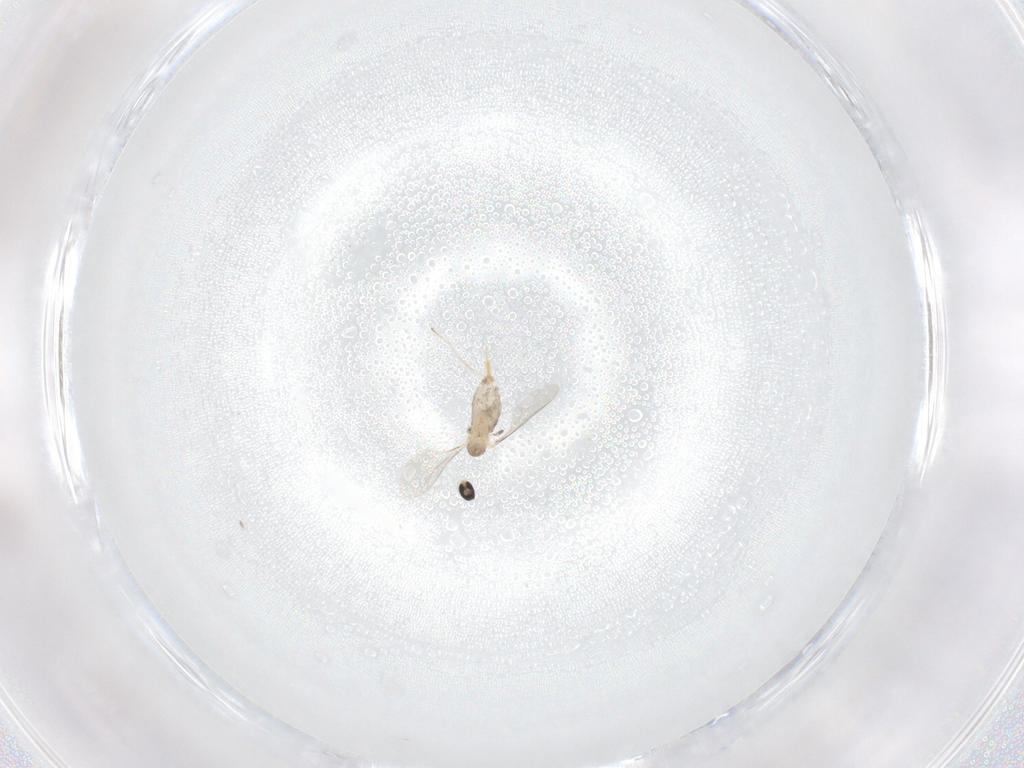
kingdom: Animalia
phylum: Arthropoda
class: Insecta
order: Diptera
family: Cecidomyiidae
